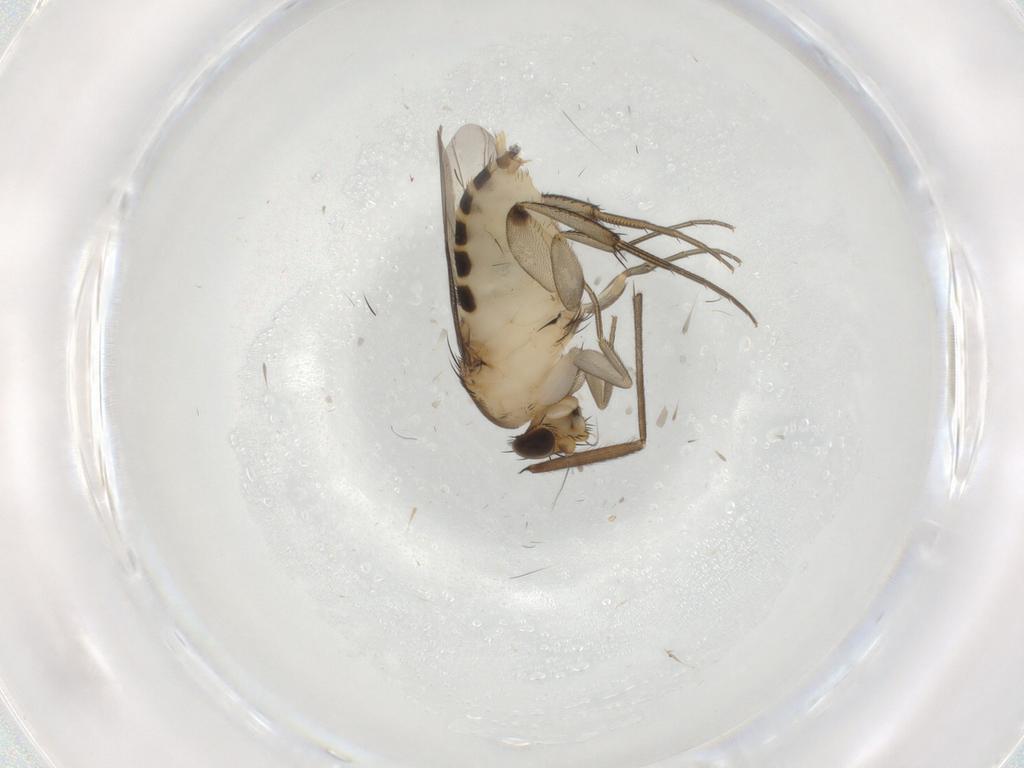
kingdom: Animalia
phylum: Arthropoda
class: Insecta
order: Diptera
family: Phoridae
